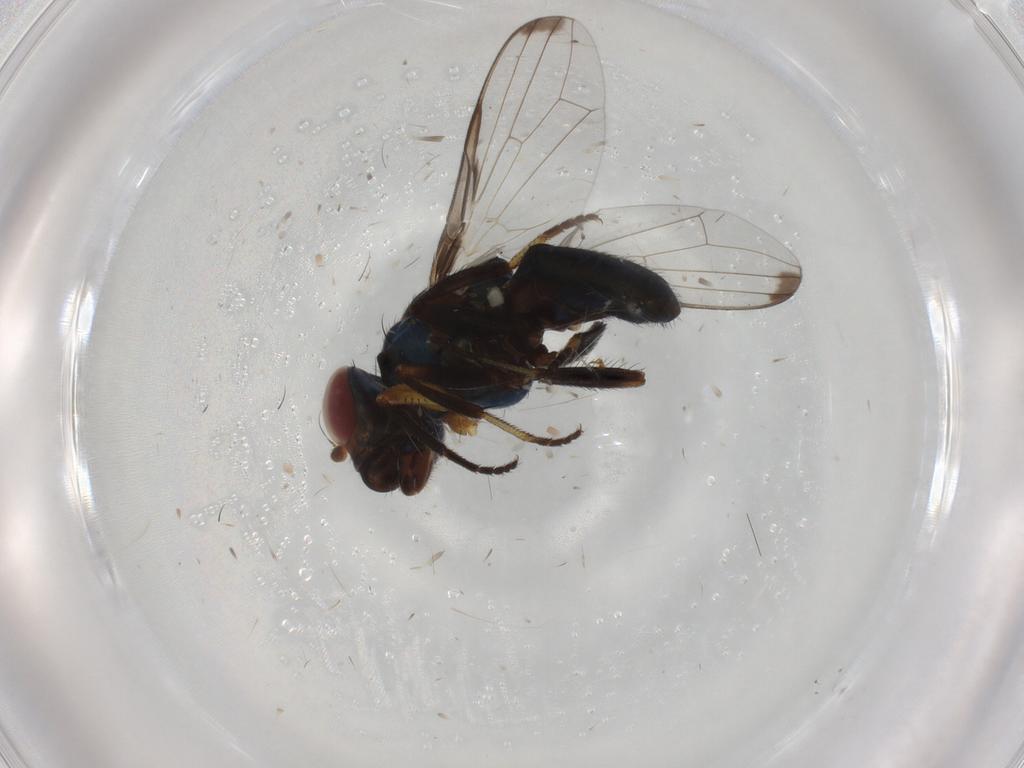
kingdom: Animalia
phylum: Arthropoda
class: Insecta
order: Diptera
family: Ulidiidae
